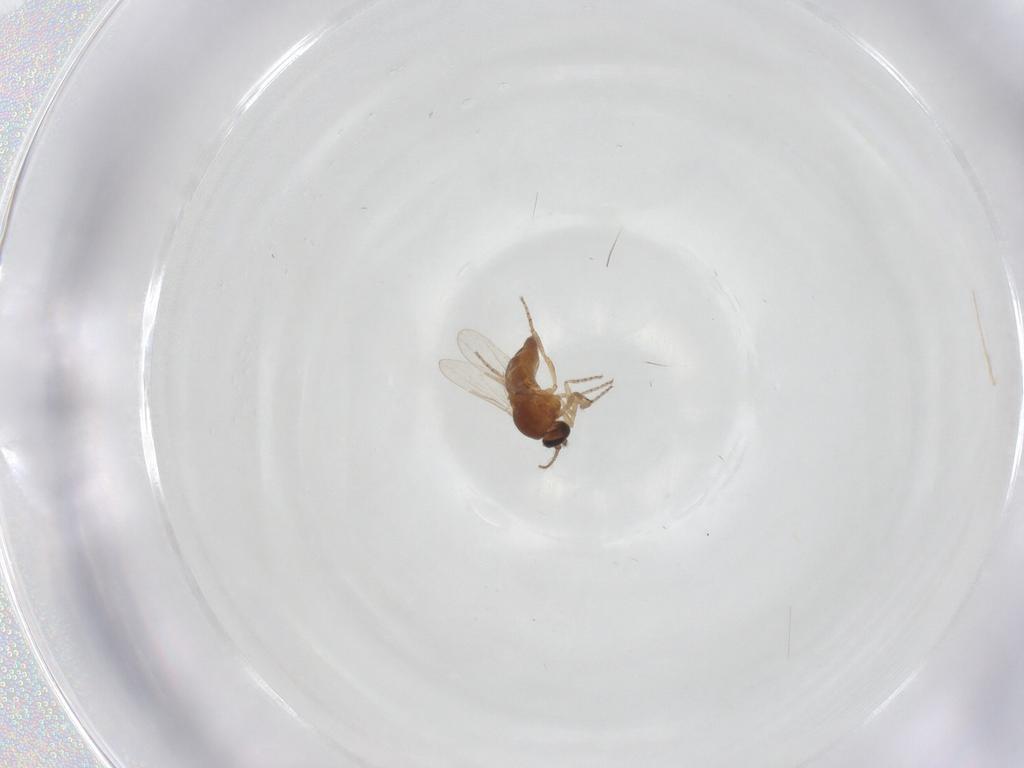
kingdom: Animalia
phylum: Arthropoda
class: Insecta
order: Diptera
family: Ceratopogonidae
